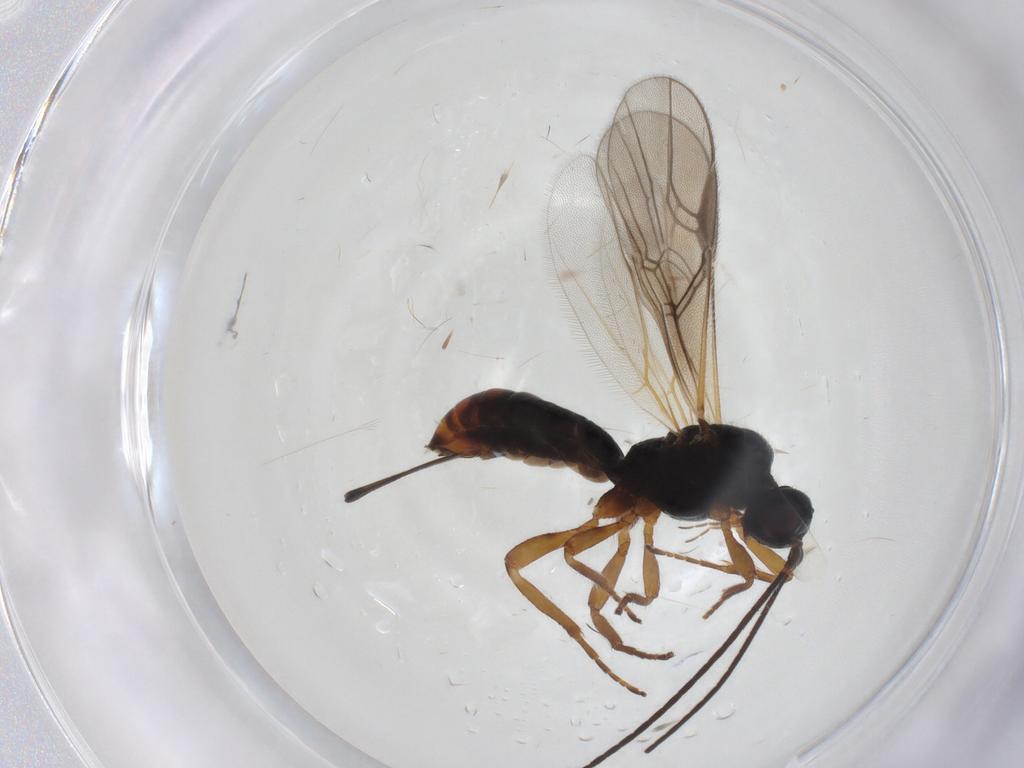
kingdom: Animalia
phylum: Arthropoda
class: Insecta
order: Hymenoptera
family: Braconidae
